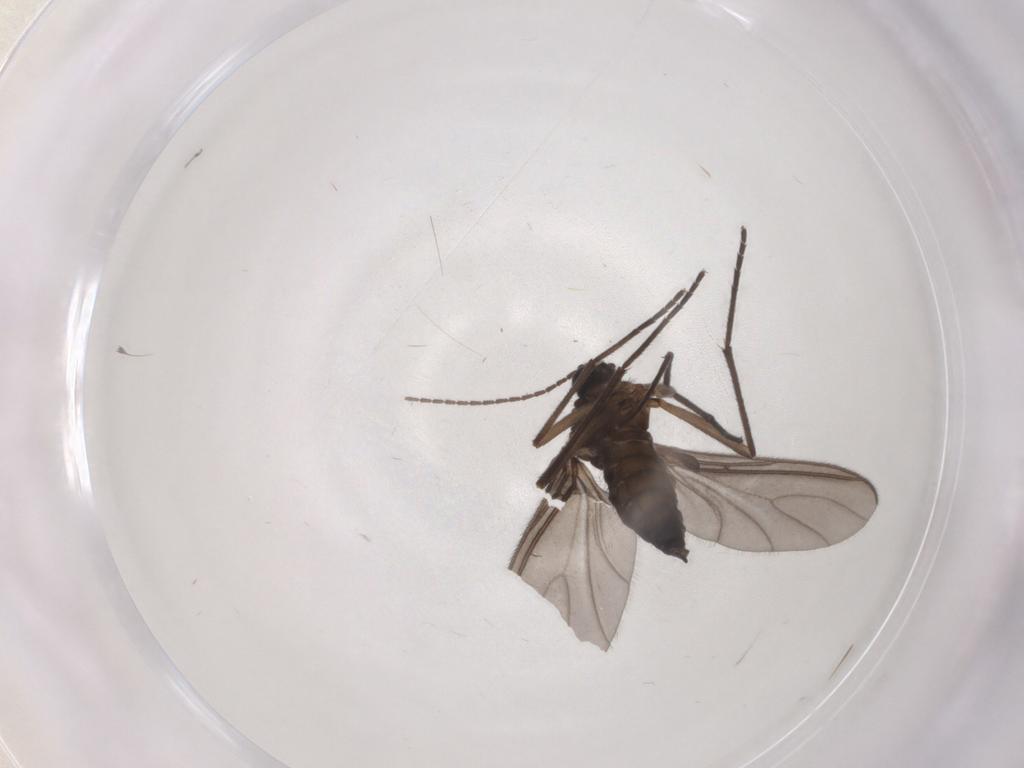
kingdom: Animalia
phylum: Arthropoda
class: Insecta
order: Diptera
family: Sciaridae
